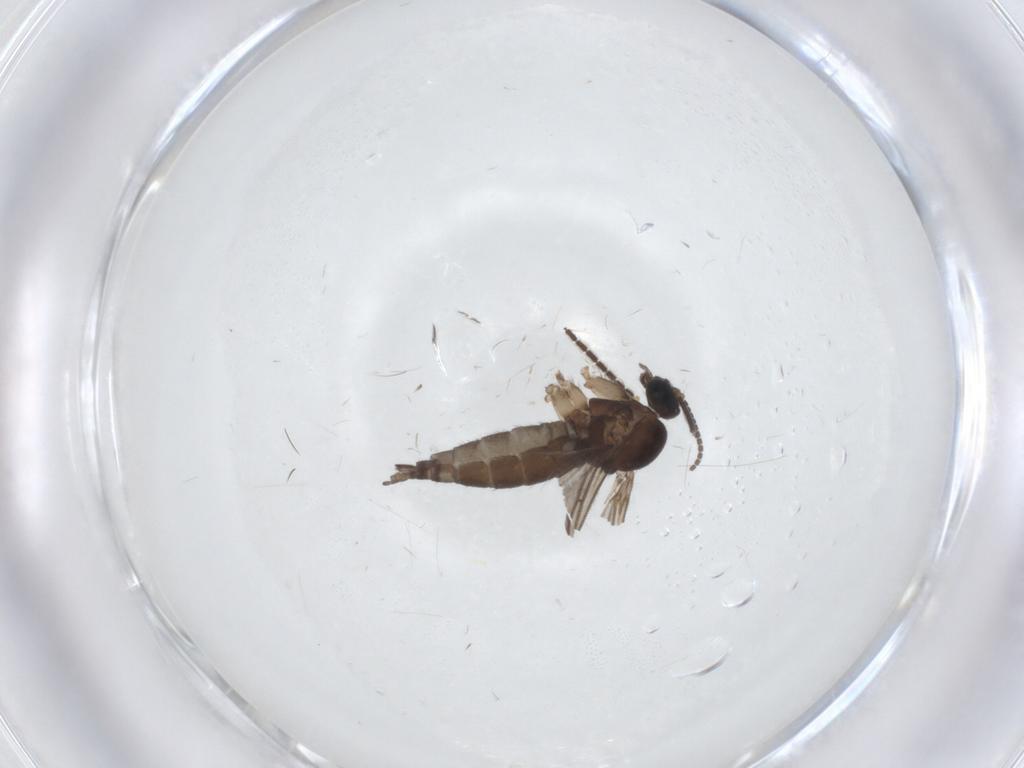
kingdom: Animalia
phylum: Arthropoda
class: Insecta
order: Diptera
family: Sciaridae
